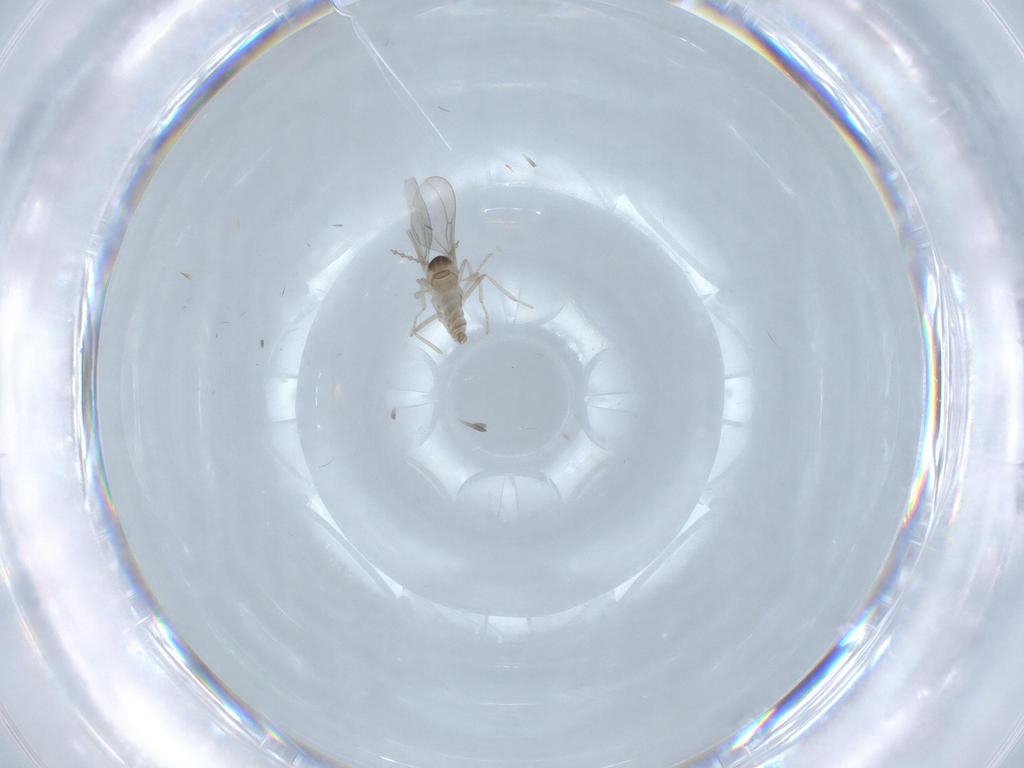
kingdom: Animalia
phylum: Arthropoda
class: Insecta
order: Diptera
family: Cecidomyiidae
